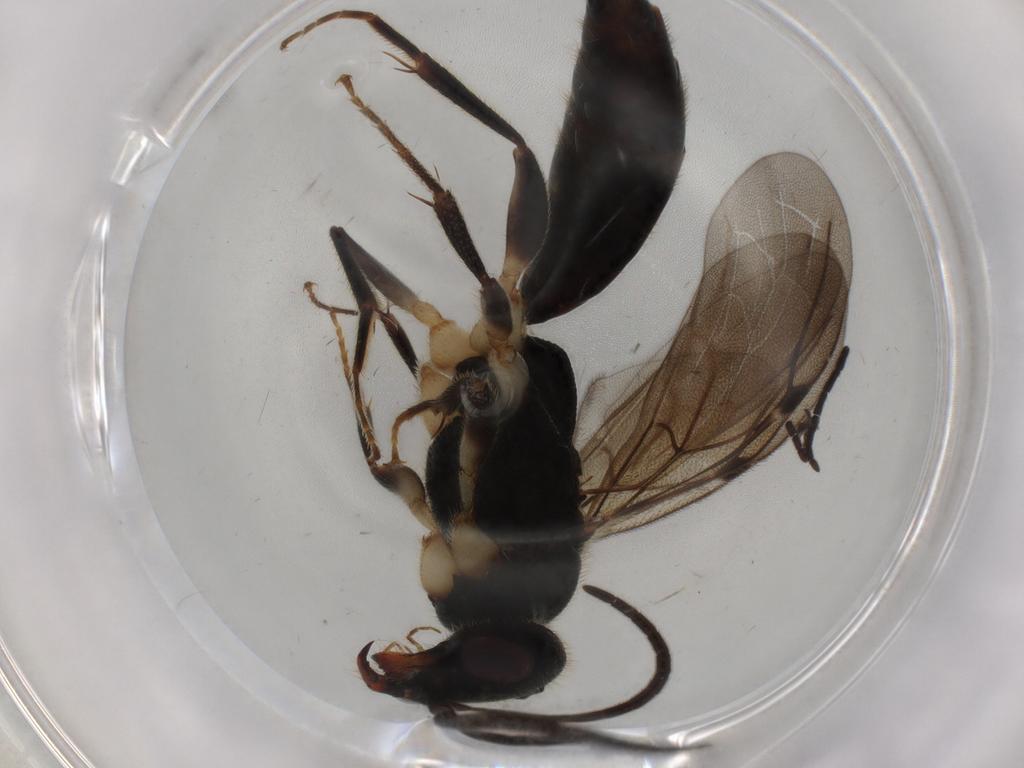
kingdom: Animalia
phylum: Arthropoda
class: Insecta
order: Hymenoptera
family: Bethylidae
